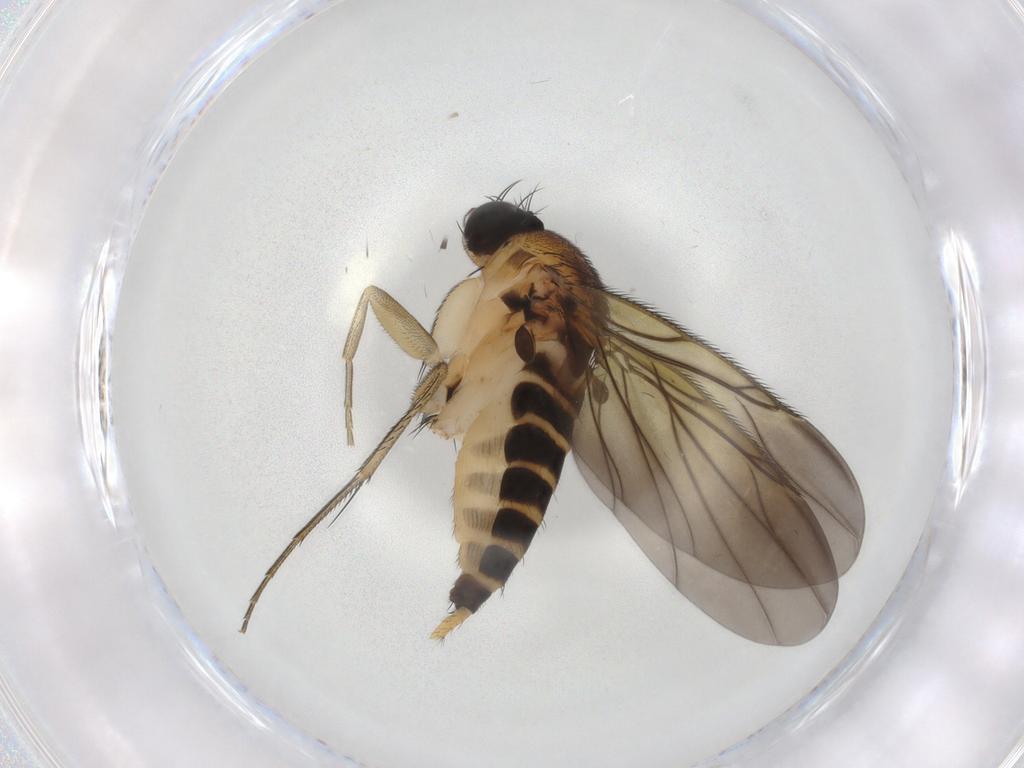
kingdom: Animalia
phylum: Arthropoda
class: Insecta
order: Diptera
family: Phoridae
